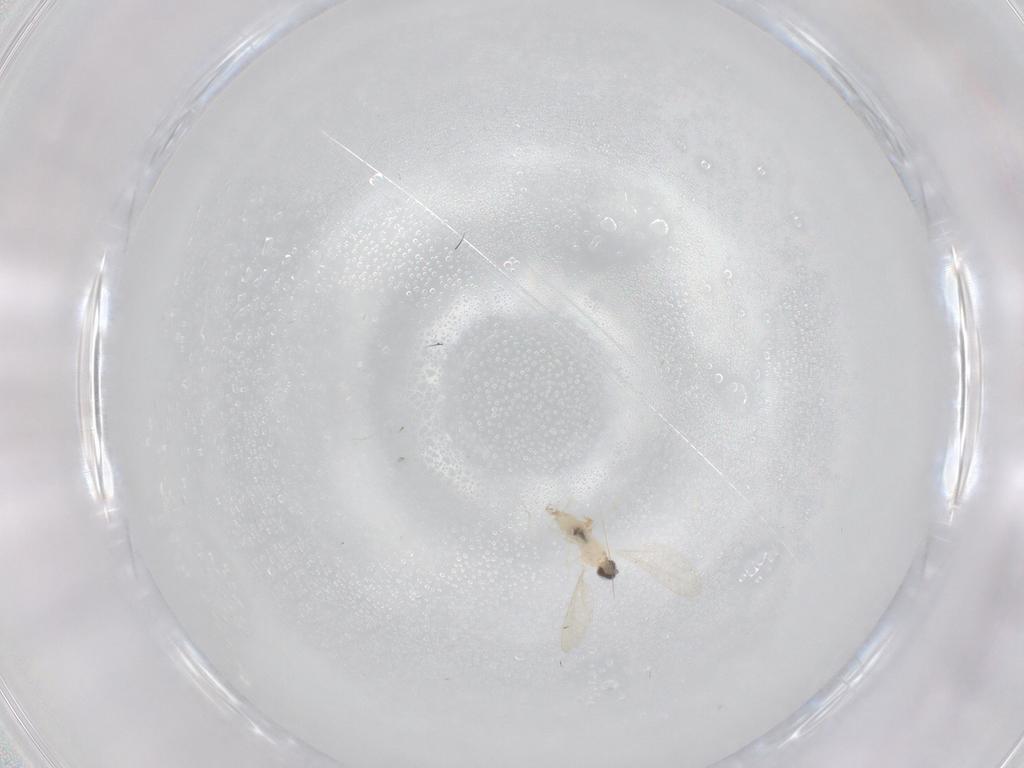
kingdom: Animalia
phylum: Arthropoda
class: Insecta
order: Diptera
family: Cecidomyiidae
